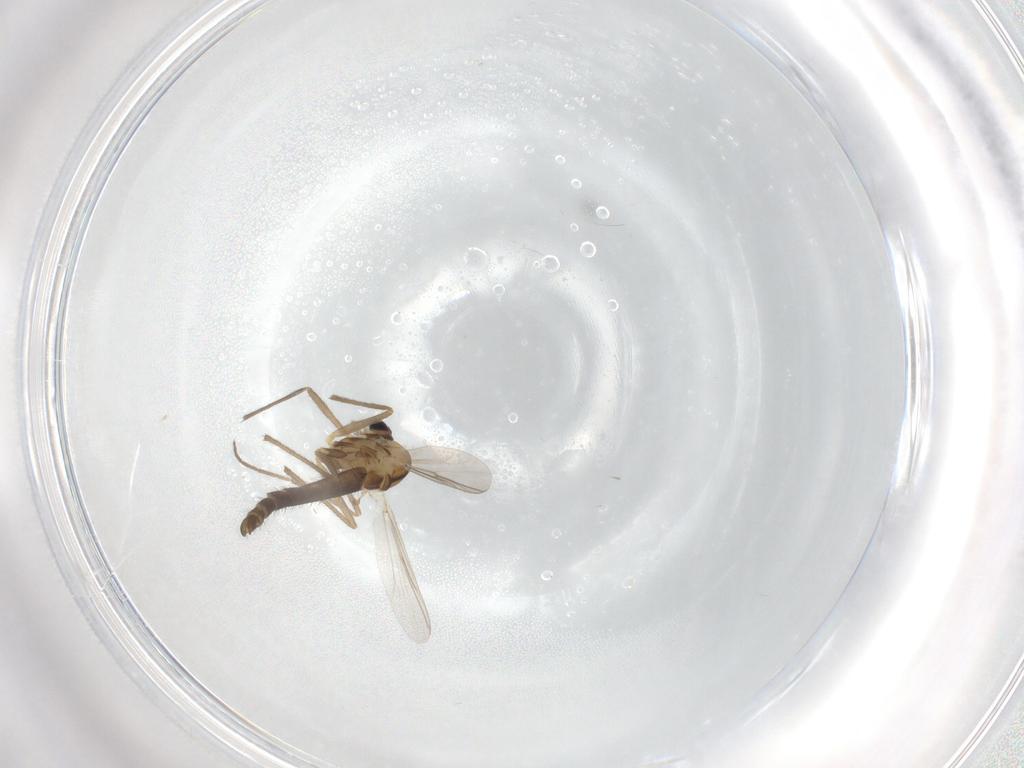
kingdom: Animalia
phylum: Arthropoda
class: Insecta
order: Diptera
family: Chironomidae
